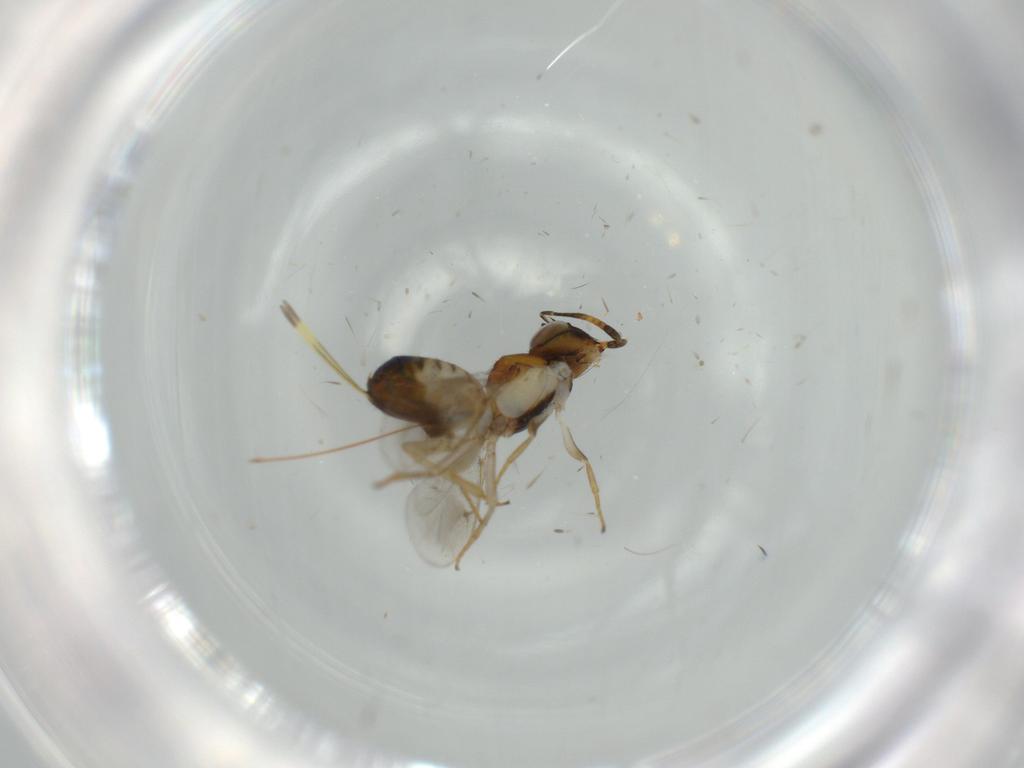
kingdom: Animalia
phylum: Arthropoda
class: Insecta
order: Hymenoptera
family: Pteromalidae
